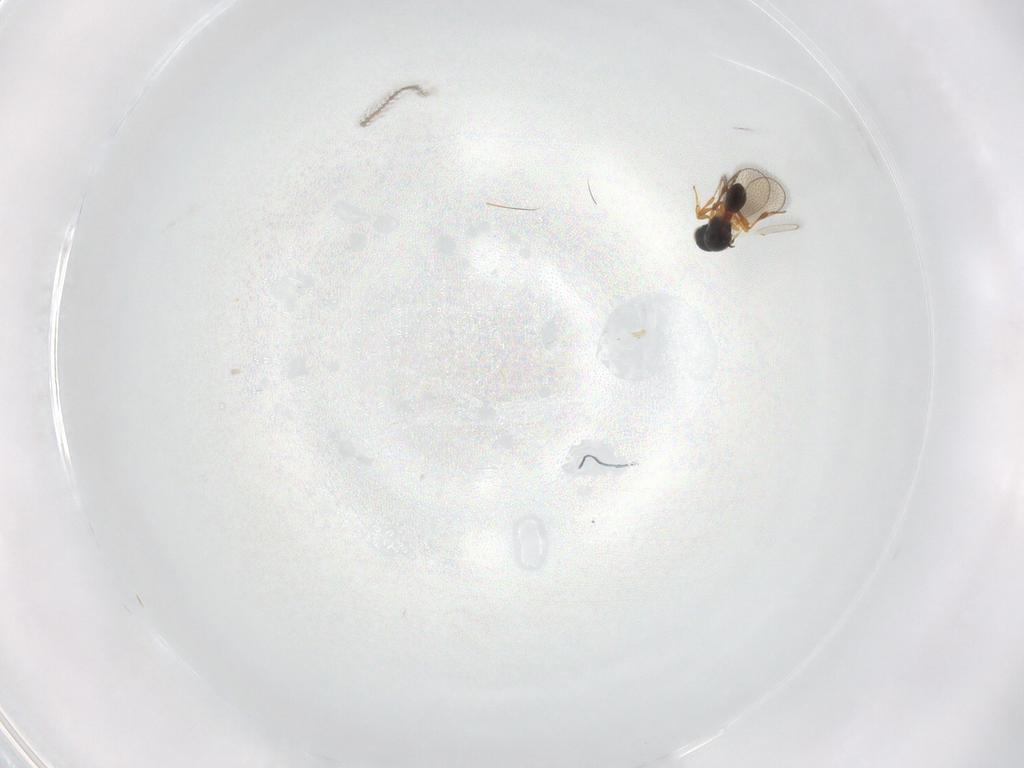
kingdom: Animalia
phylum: Arthropoda
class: Insecta
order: Hymenoptera
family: Platygastridae
